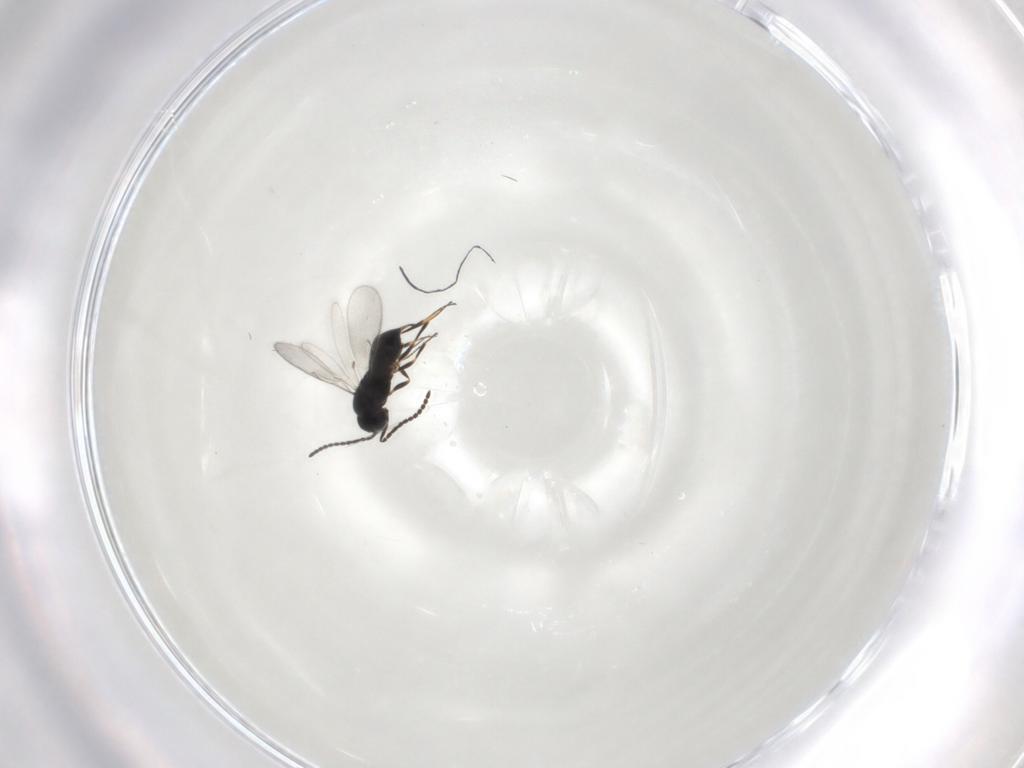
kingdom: Animalia
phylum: Arthropoda
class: Insecta
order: Hymenoptera
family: Scelionidae
